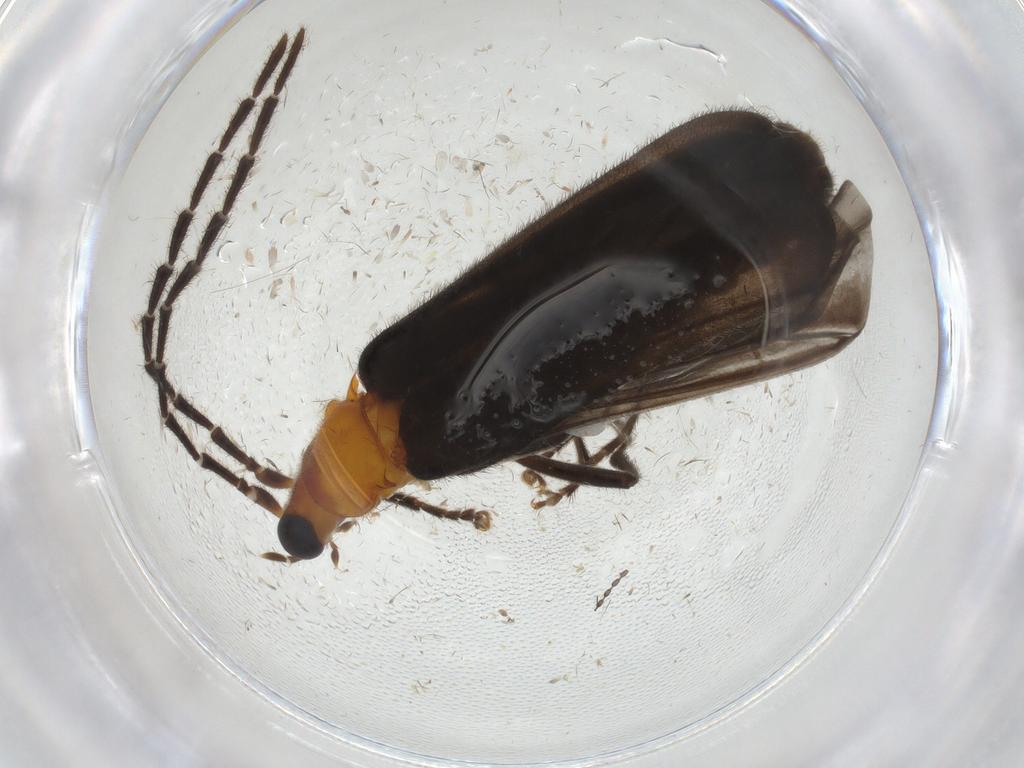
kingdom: Animalia
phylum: Arthropoda
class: Insecta
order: Coleoptera
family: Cantharidae
